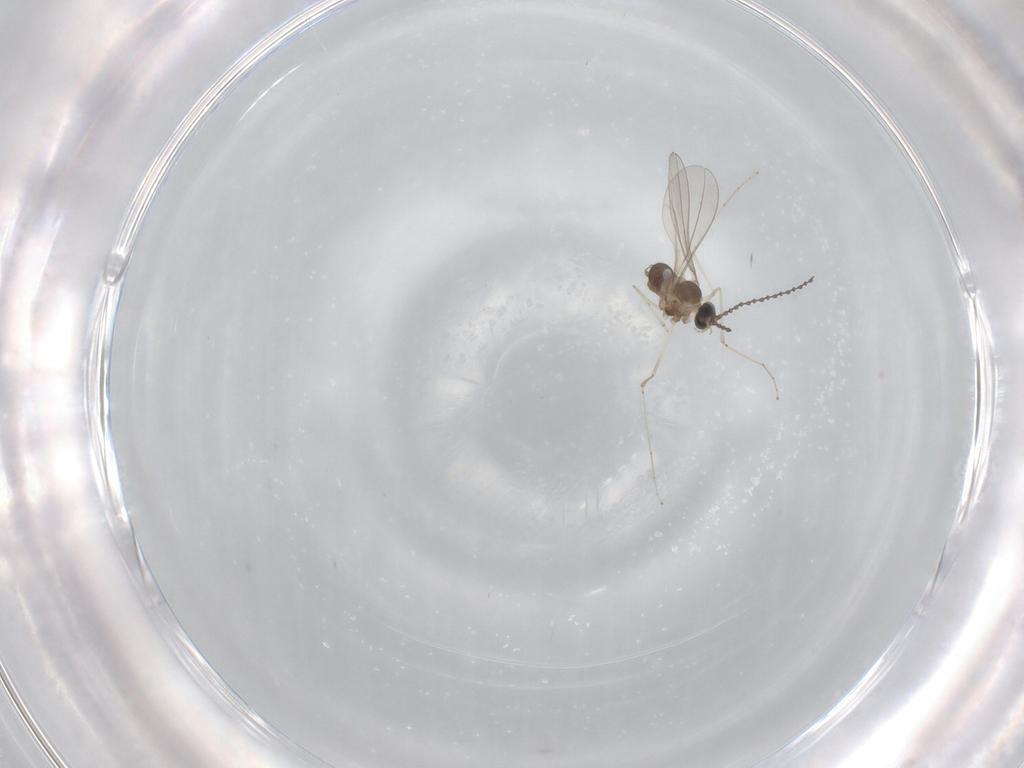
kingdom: Animalia
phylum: Arthropoda
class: Insecta
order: Diptera
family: Cecidomyiidae
